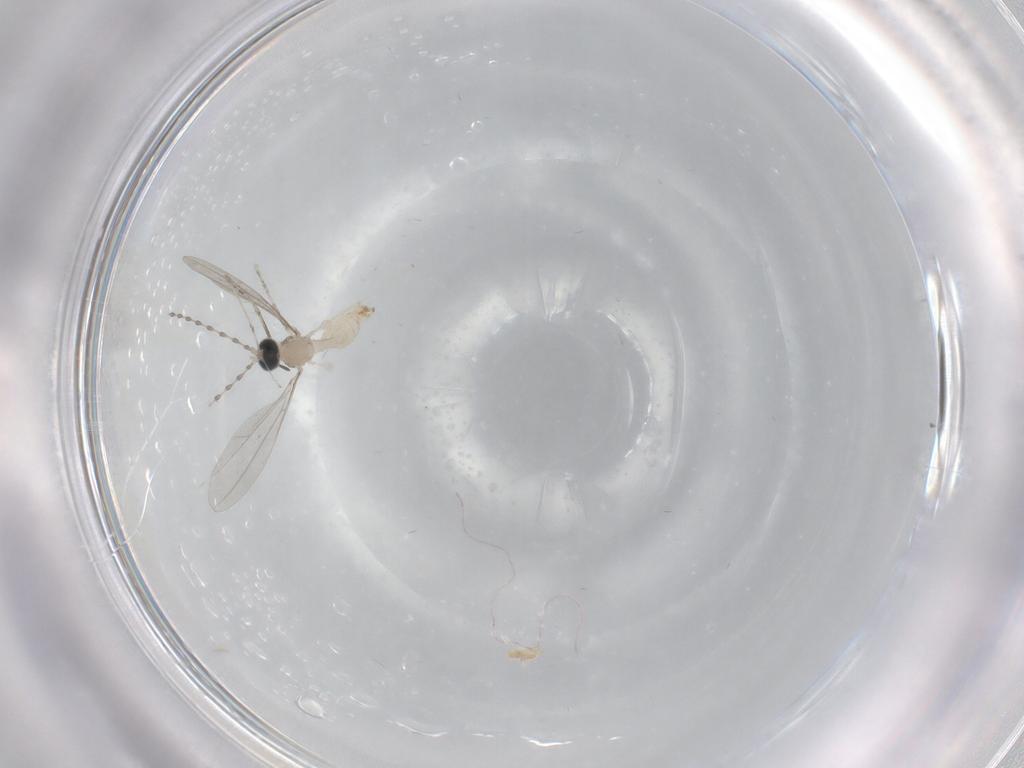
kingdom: Animalia
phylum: Arthropoda
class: Insecta
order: Diptera
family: Cecidomyiidae
